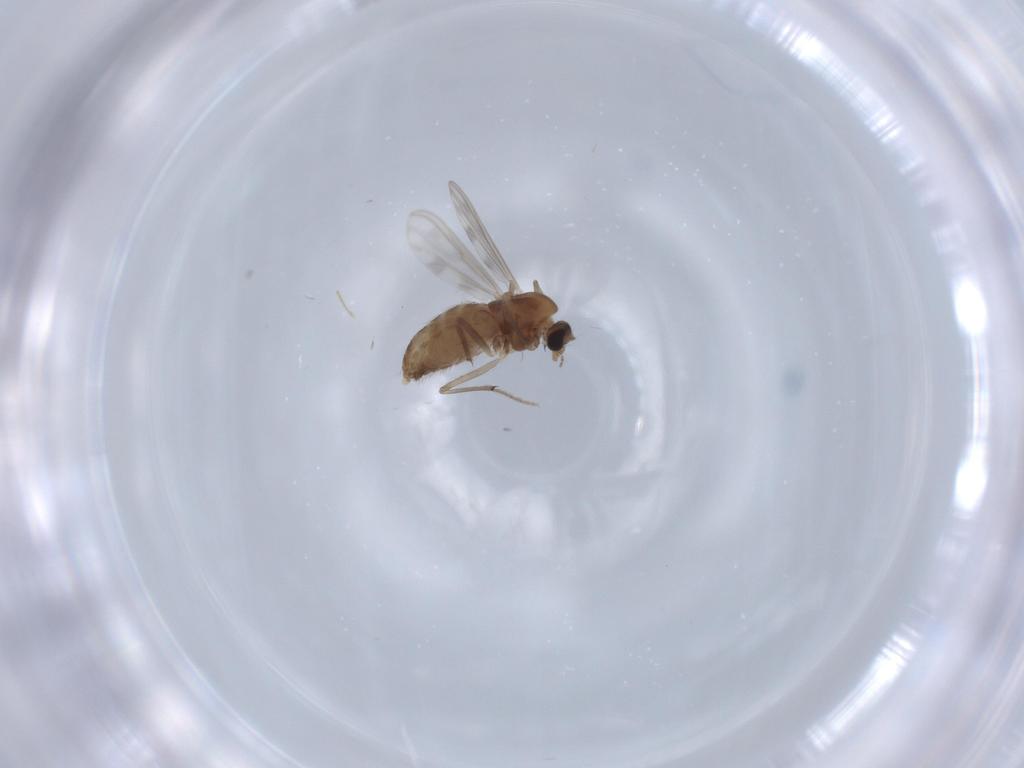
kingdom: Animalia
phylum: Arthropoda
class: Insecta
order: Diptera
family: Chironomidae
